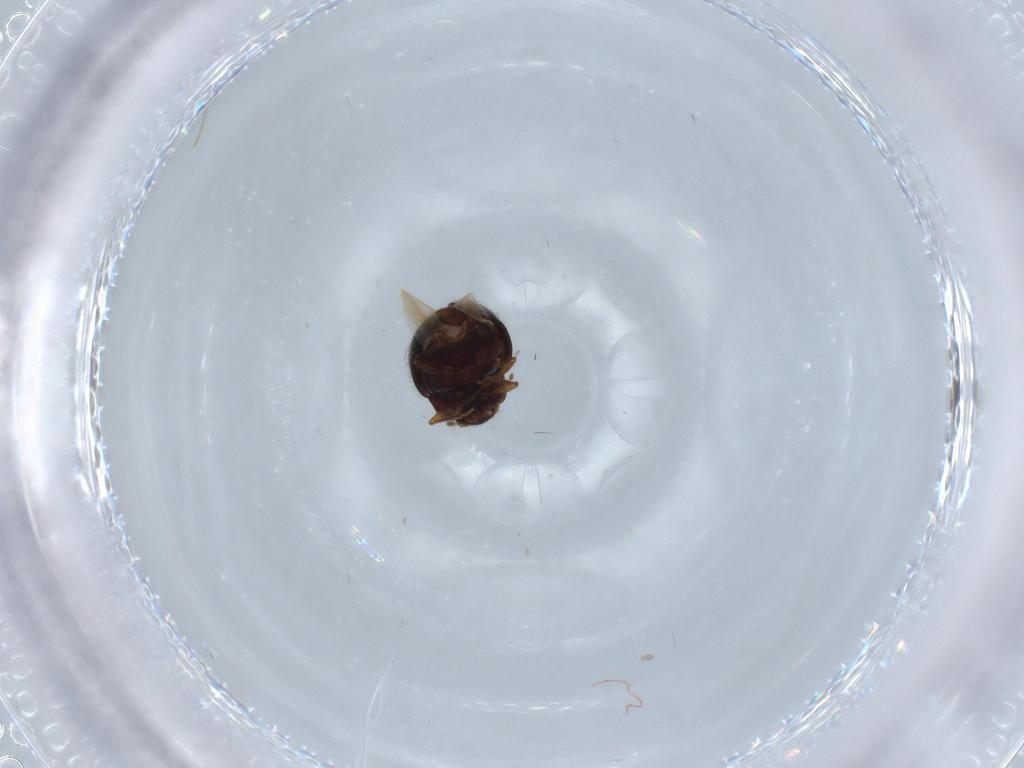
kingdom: Animalia
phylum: Arthropoda
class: Insecta
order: Coleoptera
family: Anamorphidae
